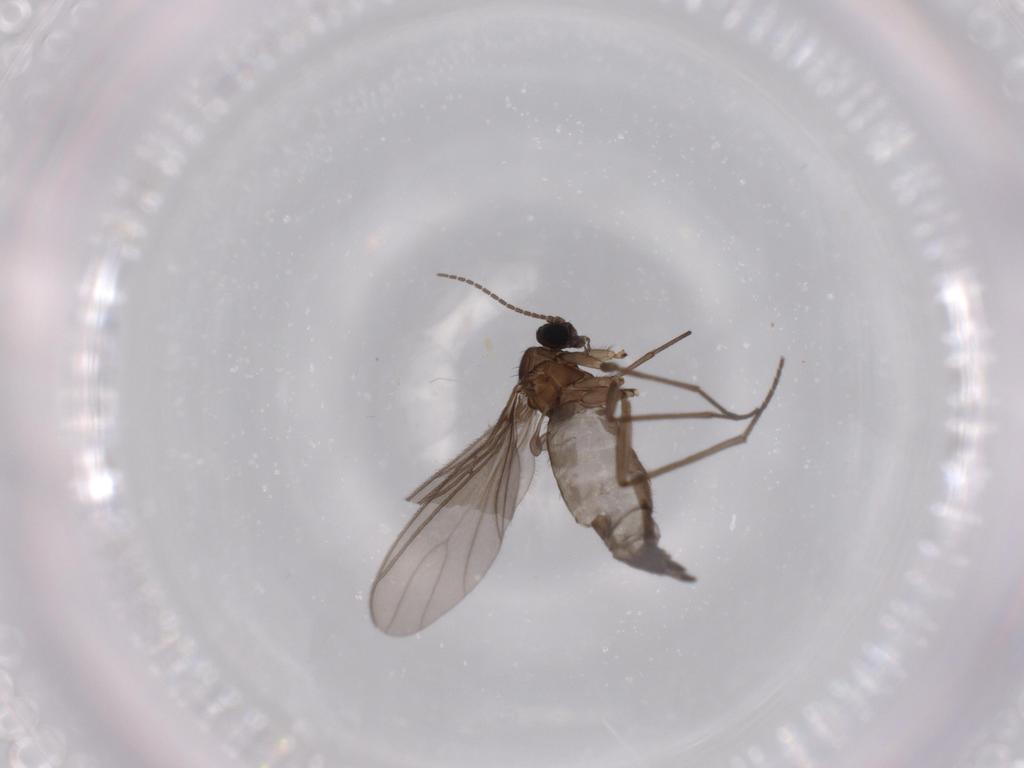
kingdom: Animalia
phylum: Arthropoda
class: Insecta
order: Diptera
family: Sciaridae
